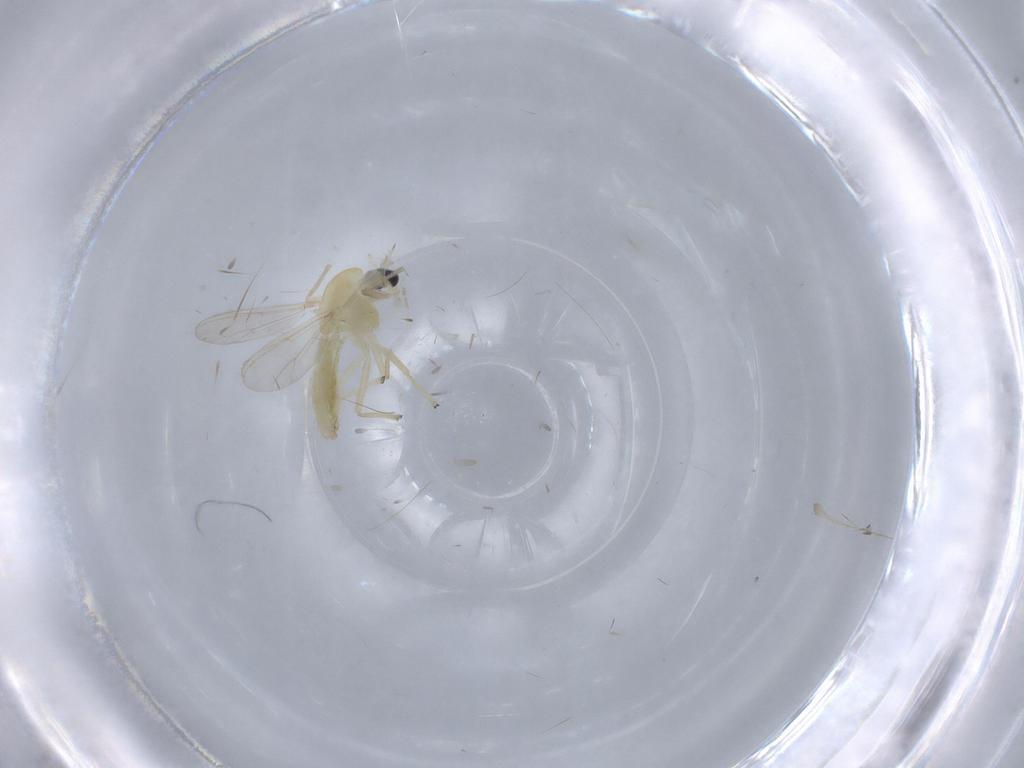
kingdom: Animalia
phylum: Arthropoda
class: Insecta
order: Diptera
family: Chironomidae
